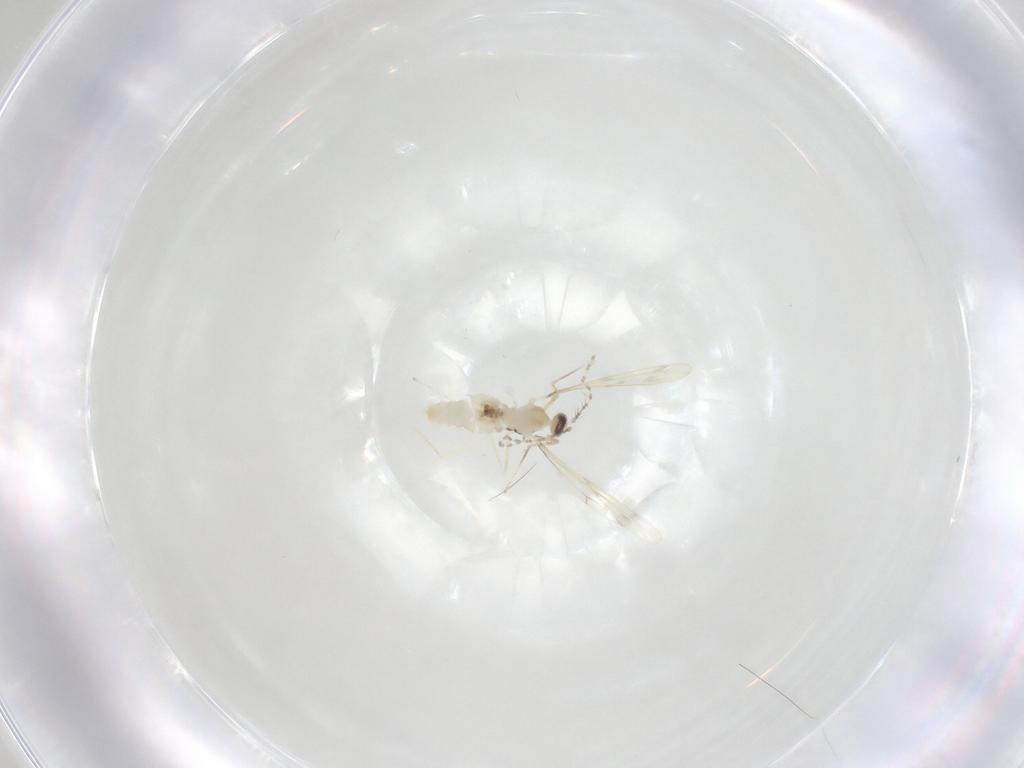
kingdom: Animalia
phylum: Arthropoda
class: Insecta
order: Diptera
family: Cecidomyiidae
